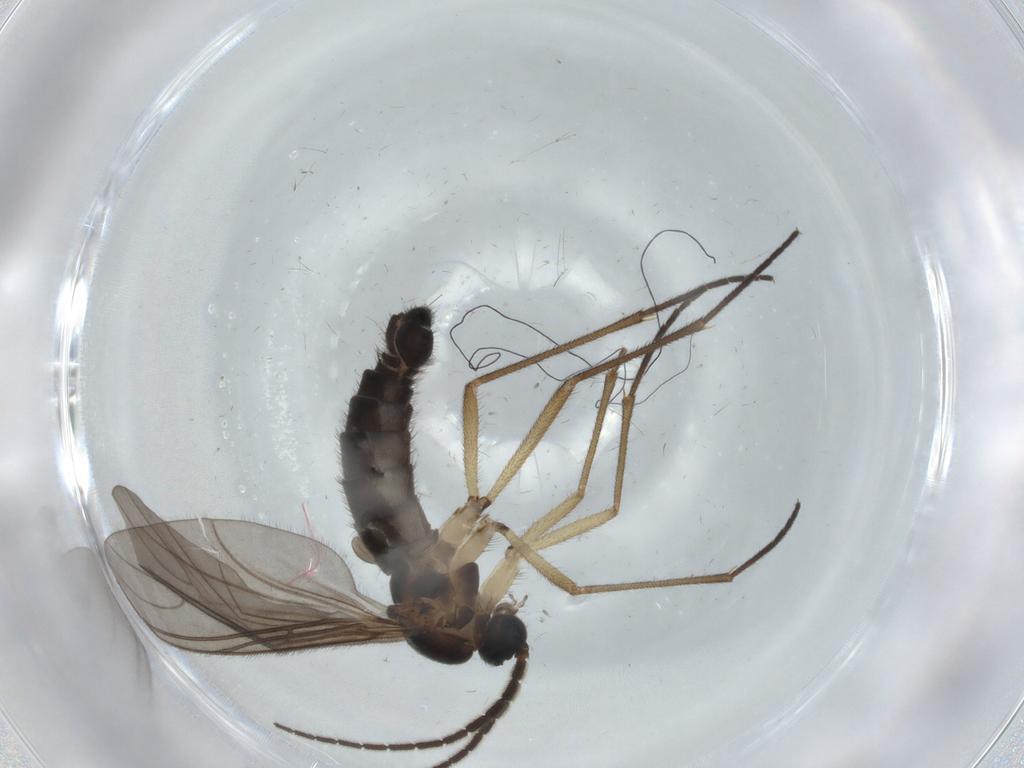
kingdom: Animalia
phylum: Arthropoda
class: Insecta
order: Diptera
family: Sciaridae
